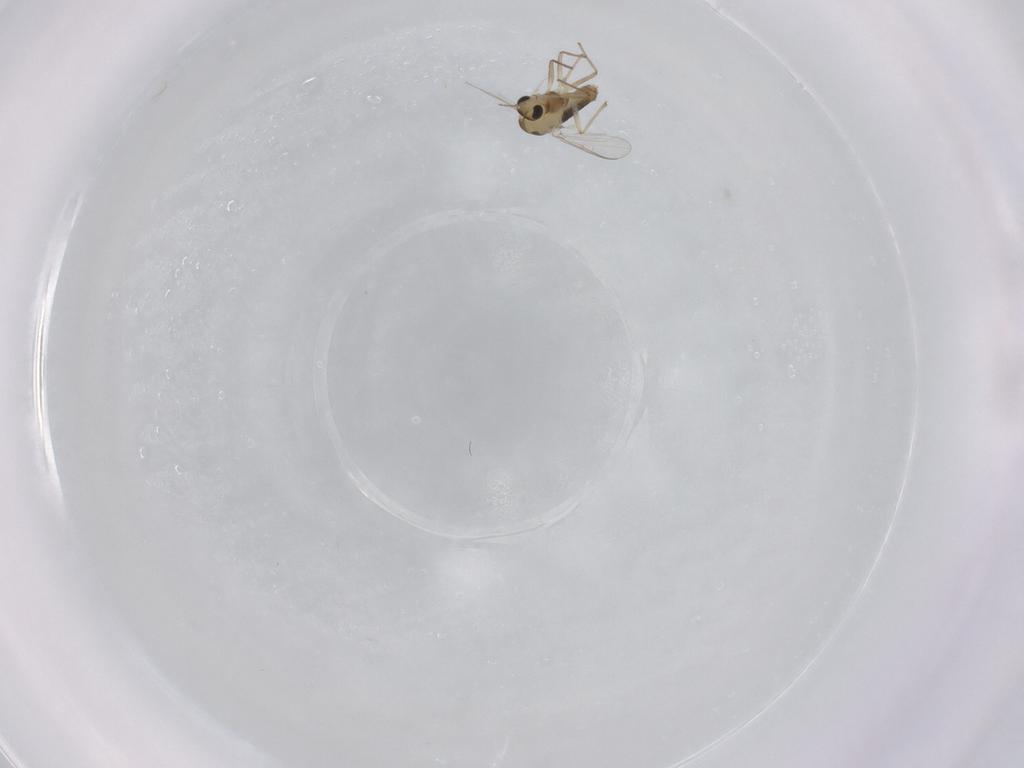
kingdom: Animalia
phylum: Arthropoda
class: Insecta
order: Diptera
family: Chironomidae
